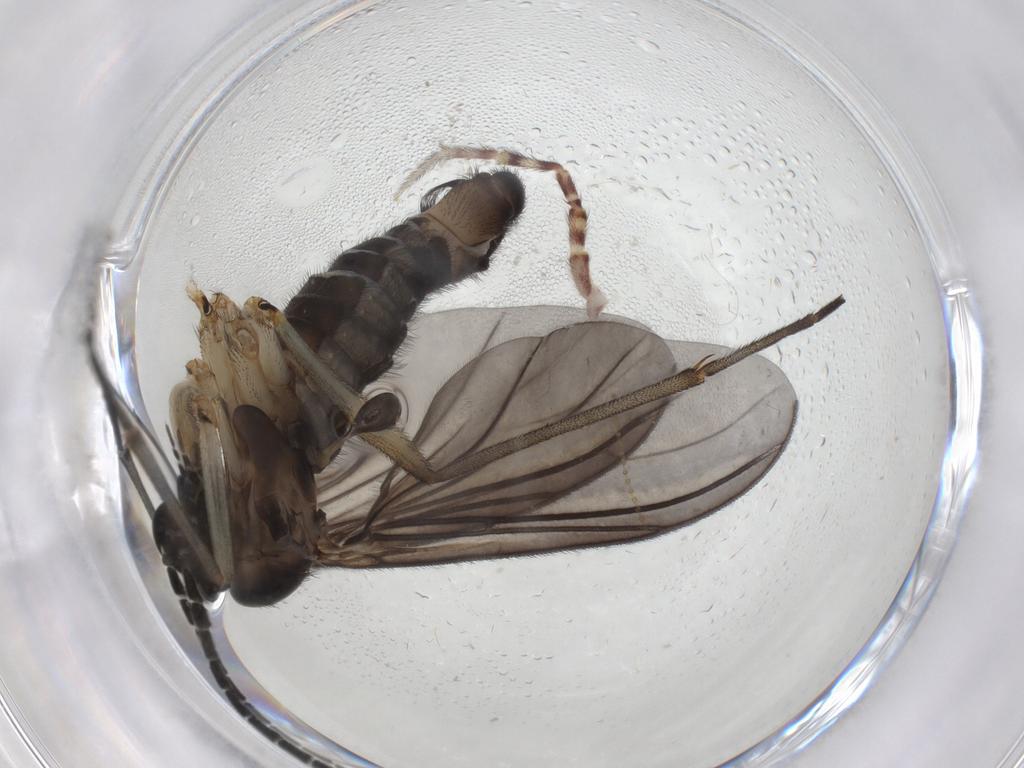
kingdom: Animalia
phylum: Arthropoda
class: Insecta
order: Diptera
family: Sciaridae
